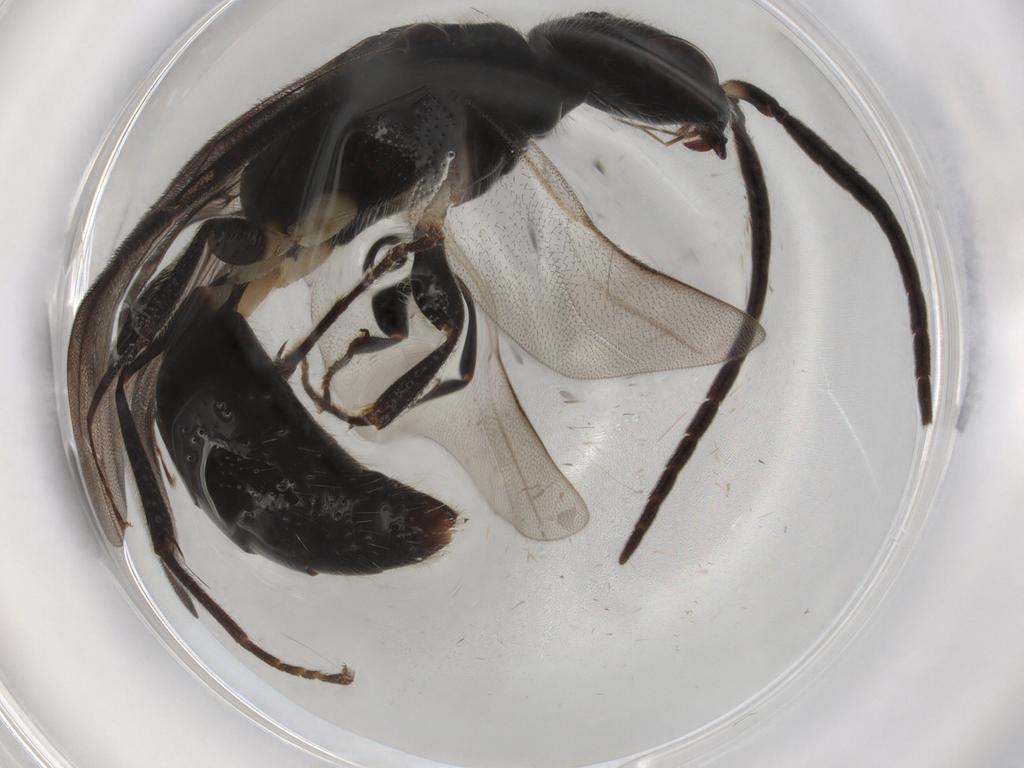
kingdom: Animalia
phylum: Arthropoda
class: Insecta
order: Hymenoptera
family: Bethylidae
